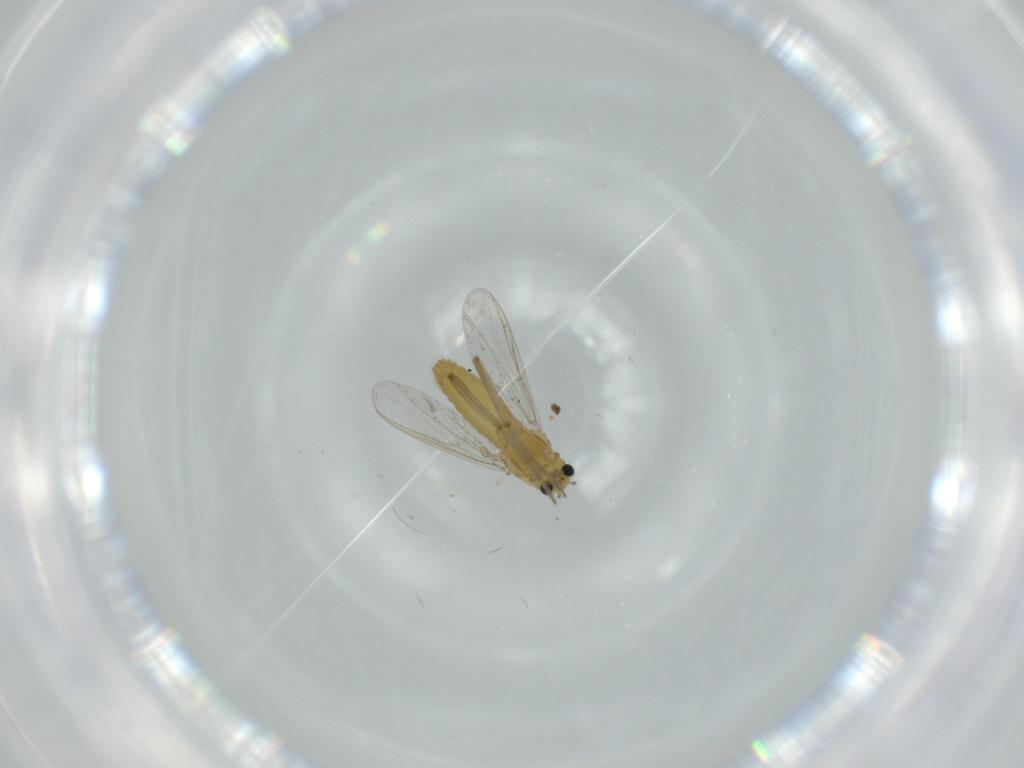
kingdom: Animalia
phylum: Arthropoda
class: Insecta
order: Diptera
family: Chironomidae
